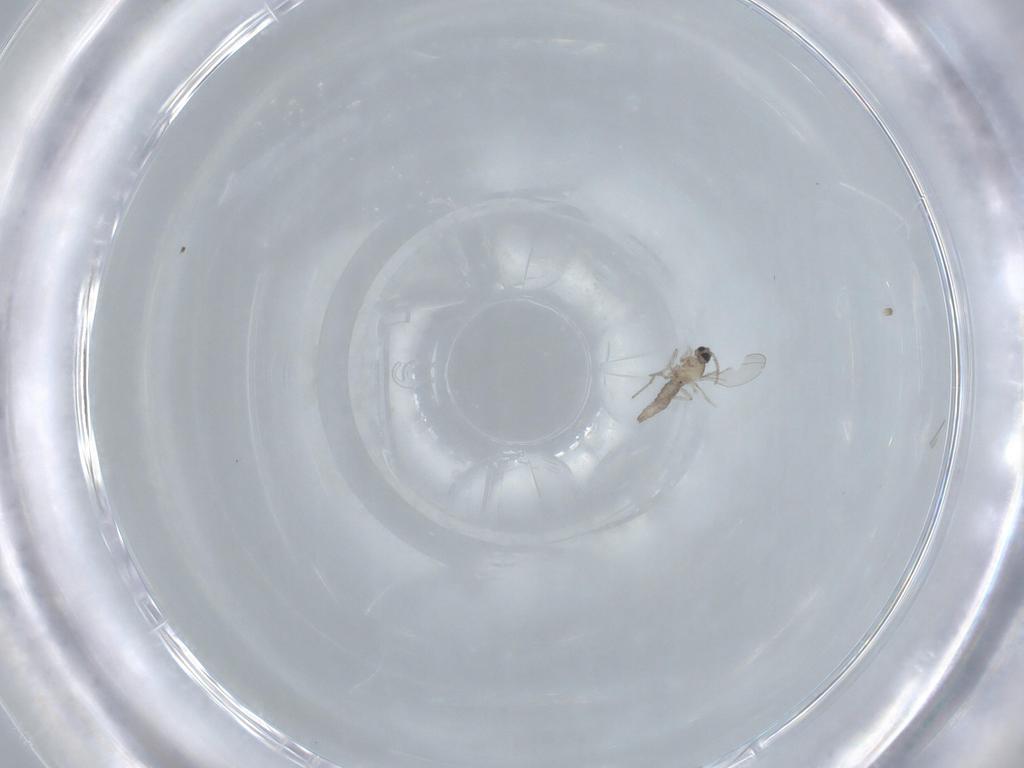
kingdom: Animalia
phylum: Arthropoda
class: Insecta
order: Diptera
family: Cecidomyiidae
